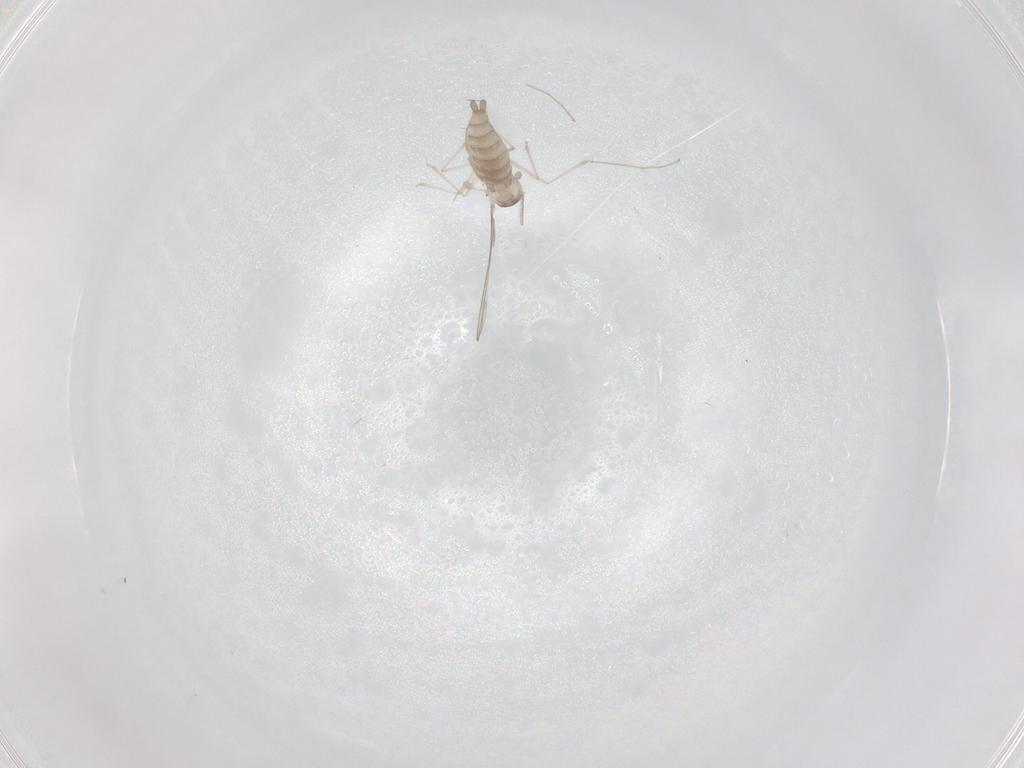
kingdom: Animalia
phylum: Arthropoda
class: Insecta
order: Diptera
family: Cecidomyiidae
